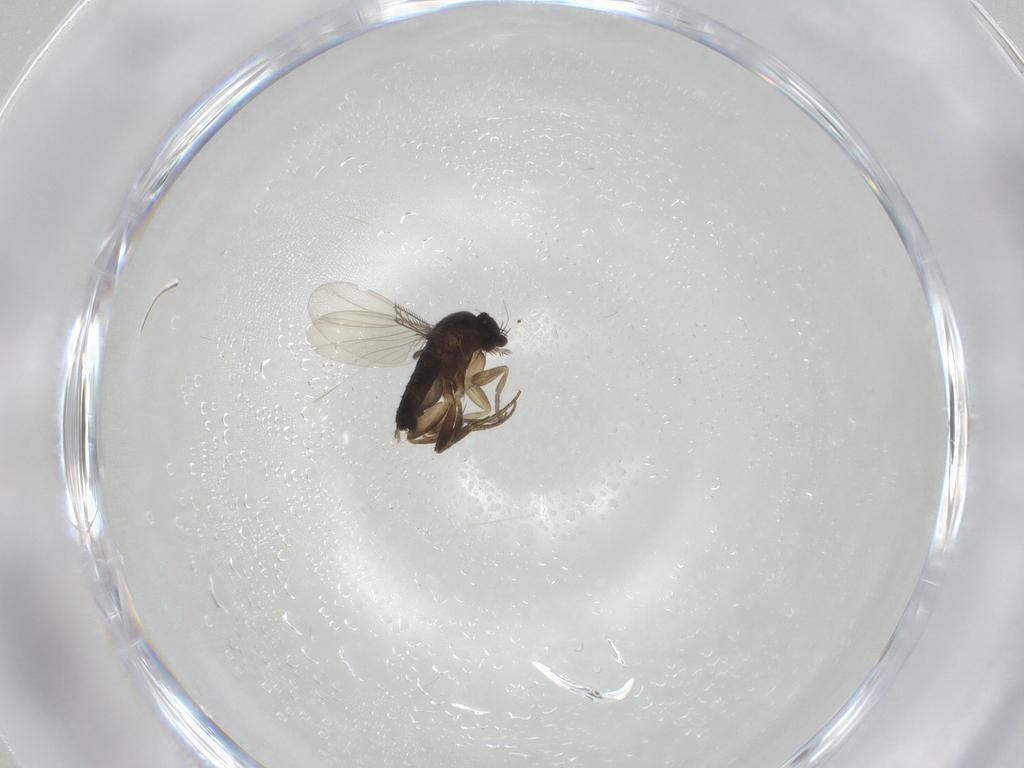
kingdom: Animalia
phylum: Arthropoda
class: Insecta
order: Diptera
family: Phoridae
